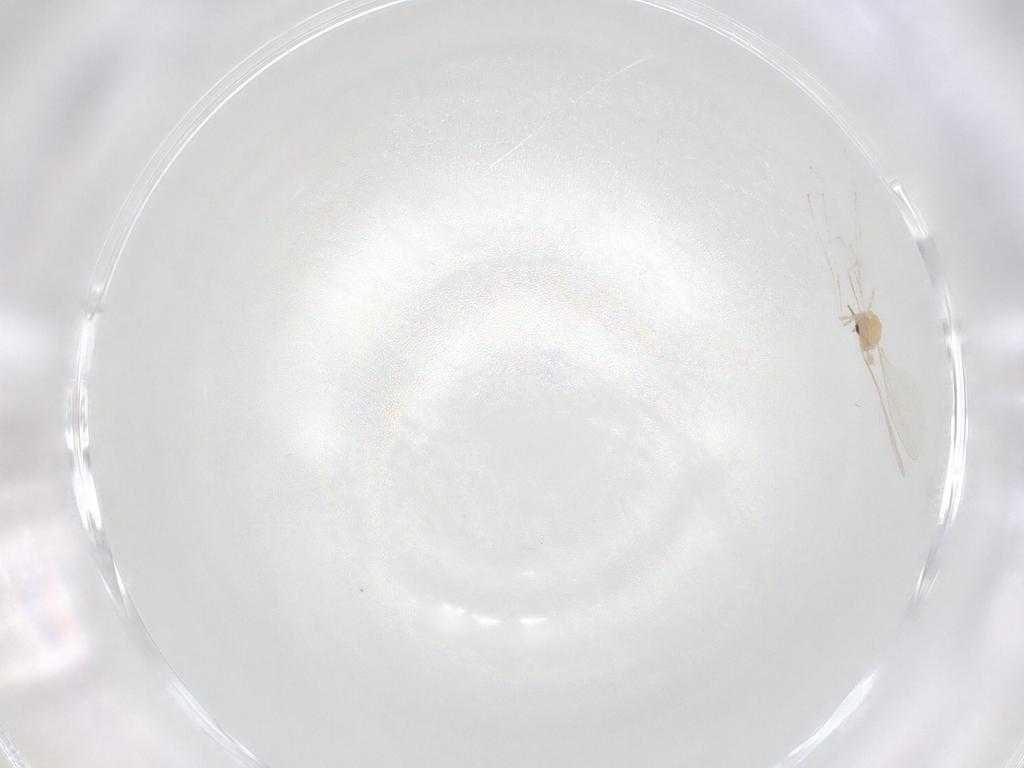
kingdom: Animalia
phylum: Arthropoda
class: Insecta
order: Diptera
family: Cecidomyiidae
